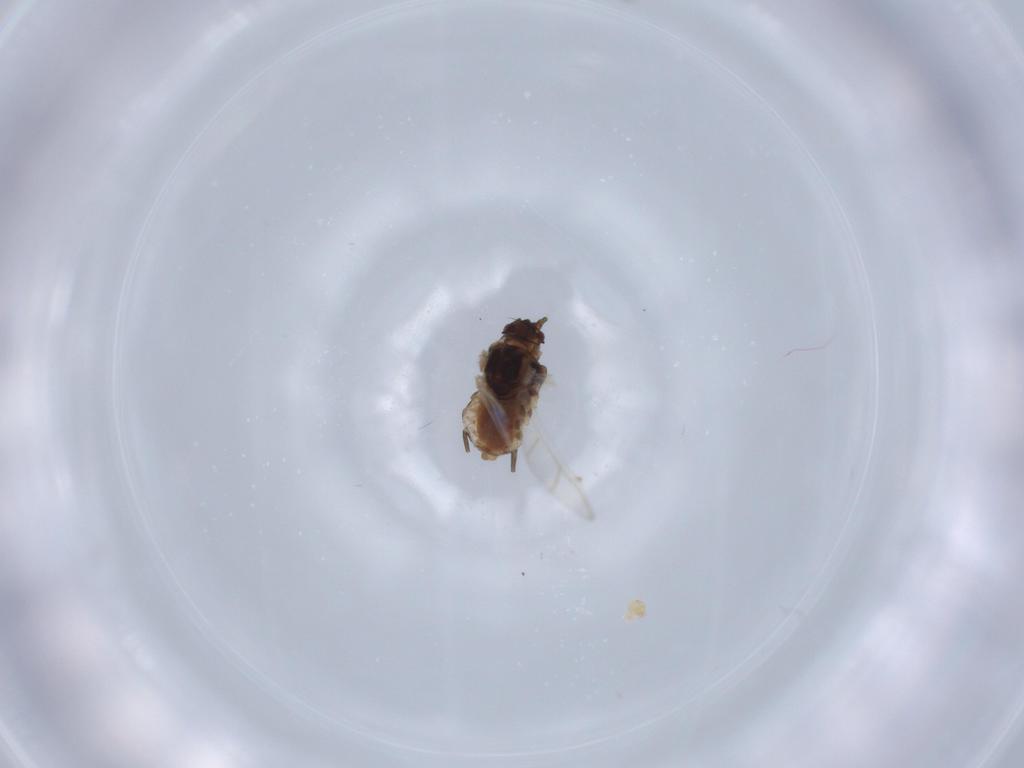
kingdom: Animalia
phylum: Arthropoda
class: Insecta
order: Hemiptera
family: Aphididae
